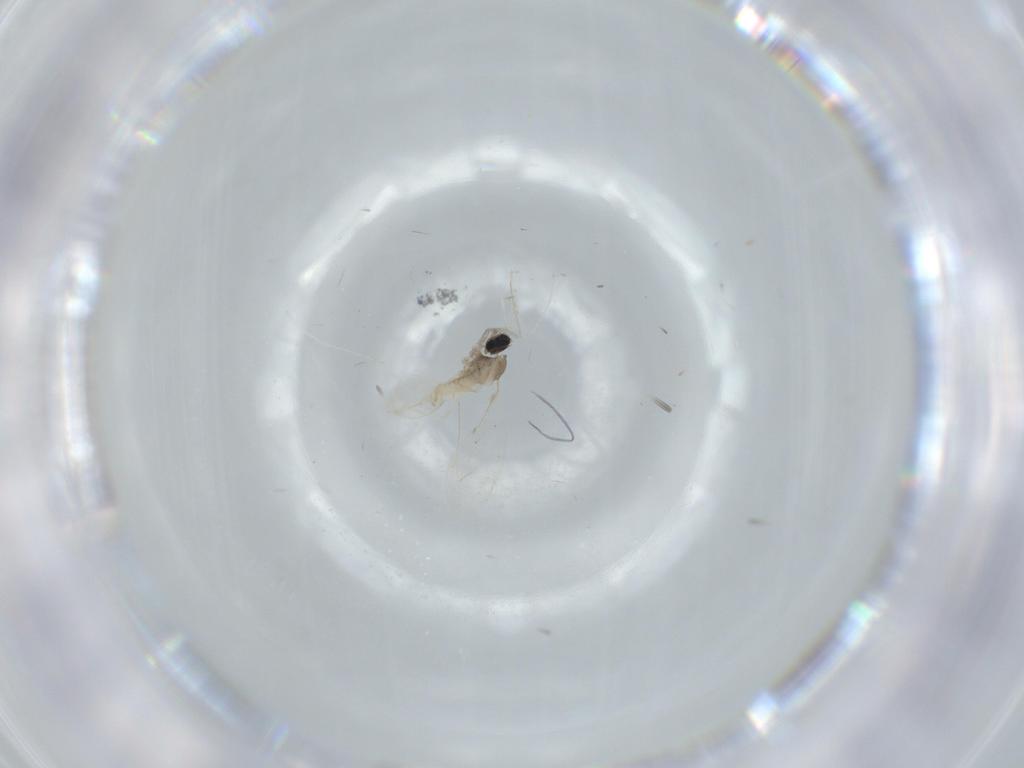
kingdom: Animalia
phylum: Arthropoda
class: Insecta
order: Diptera
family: Cecidomyiidae
